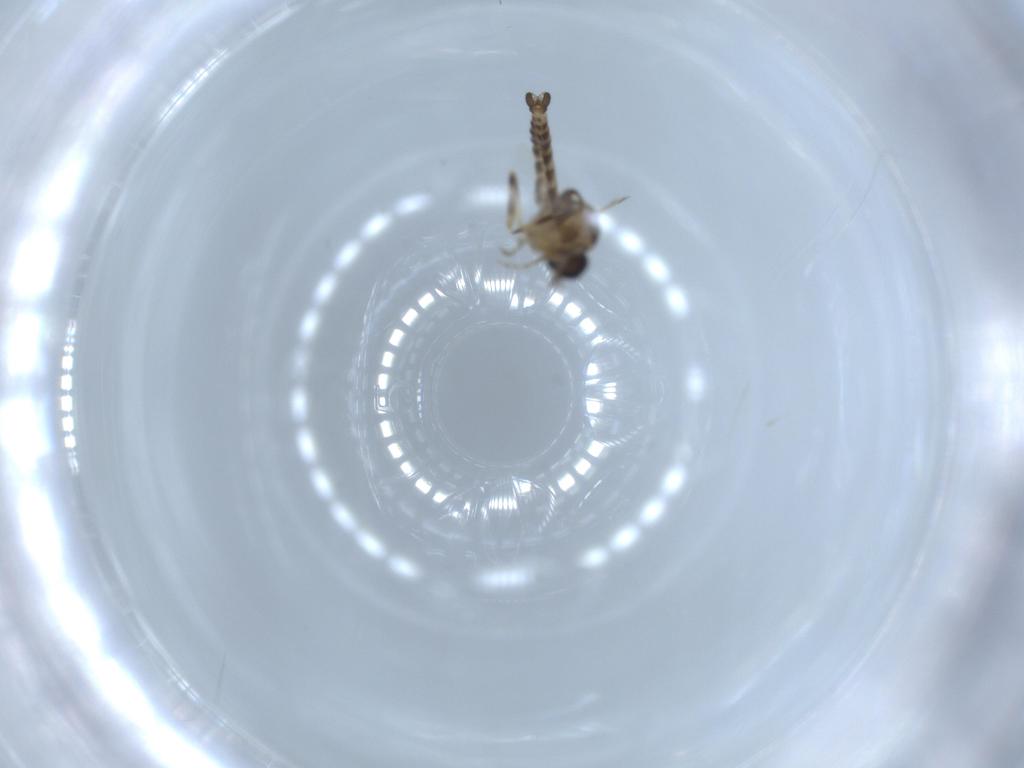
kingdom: Animalia
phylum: Arthropoda
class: Insecta
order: Diptera
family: Ceratopogonidae
